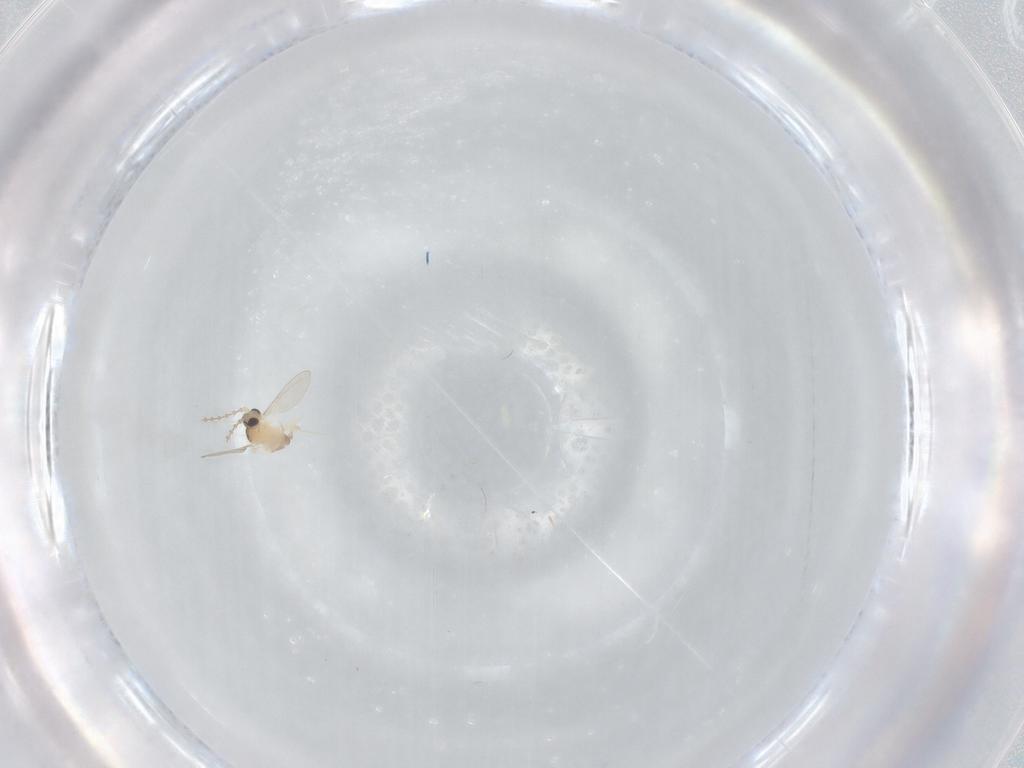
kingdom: Animalia
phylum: Arthropoda
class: Insecta
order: Diptera
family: Cecidomyiidae
